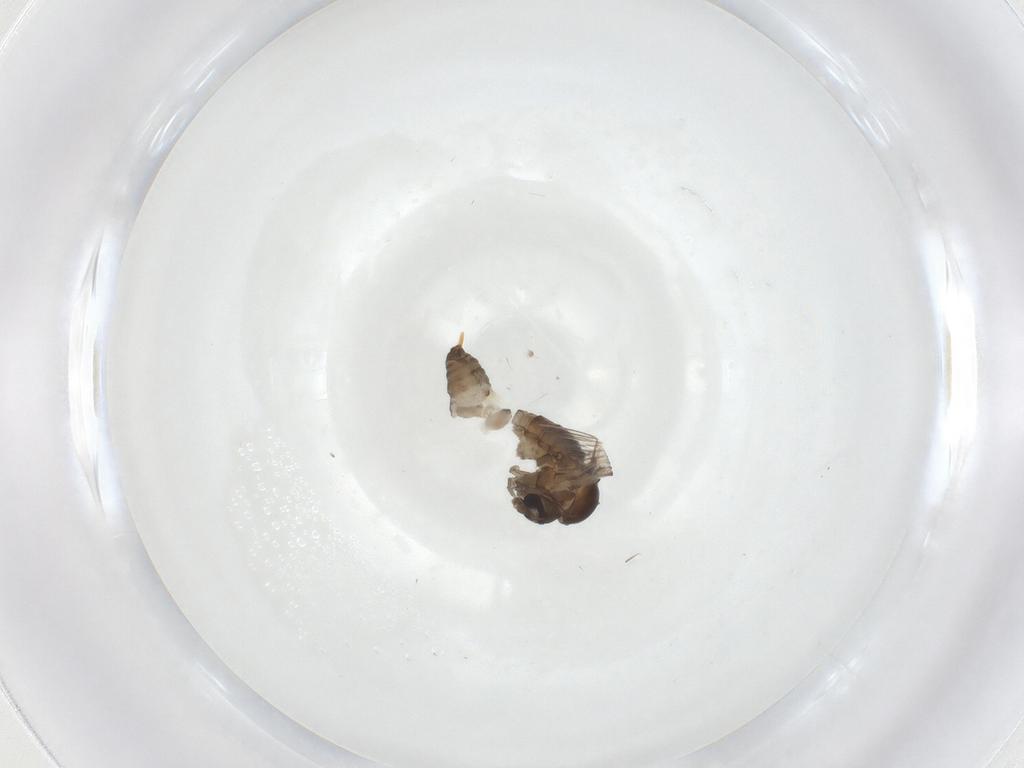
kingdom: Animalia
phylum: Arthropoda
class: Insecta
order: Diptera
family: Psychodidae
